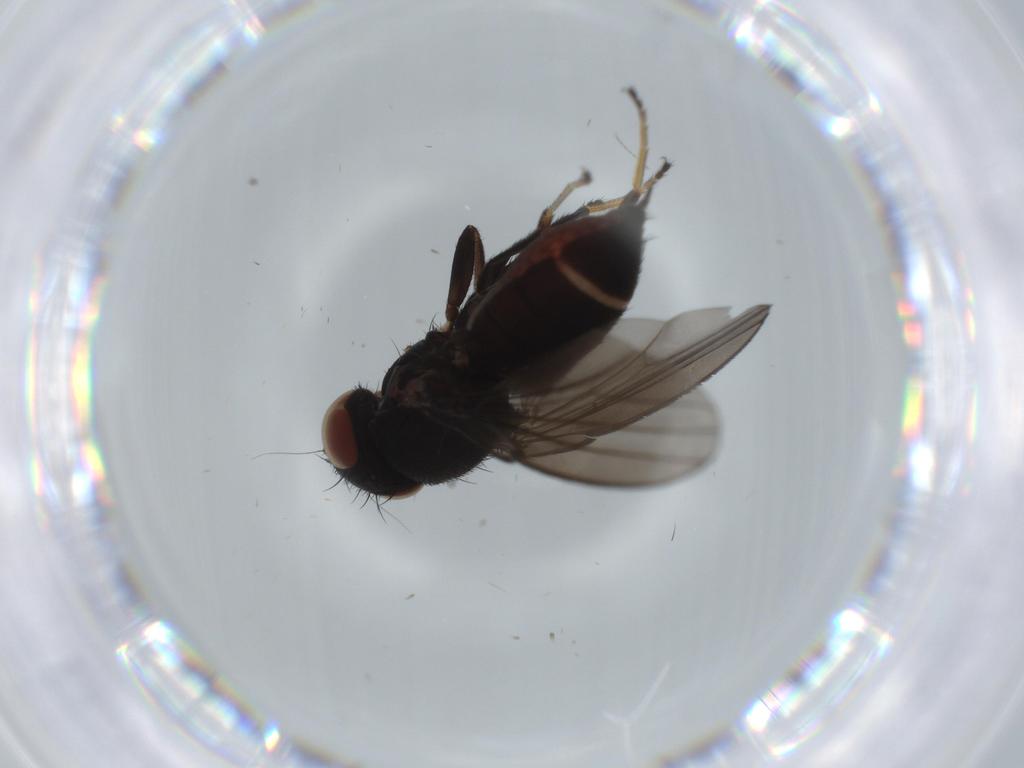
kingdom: Animalia
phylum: Arthropoda
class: Insecta
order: Diptera
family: Milichiidae
